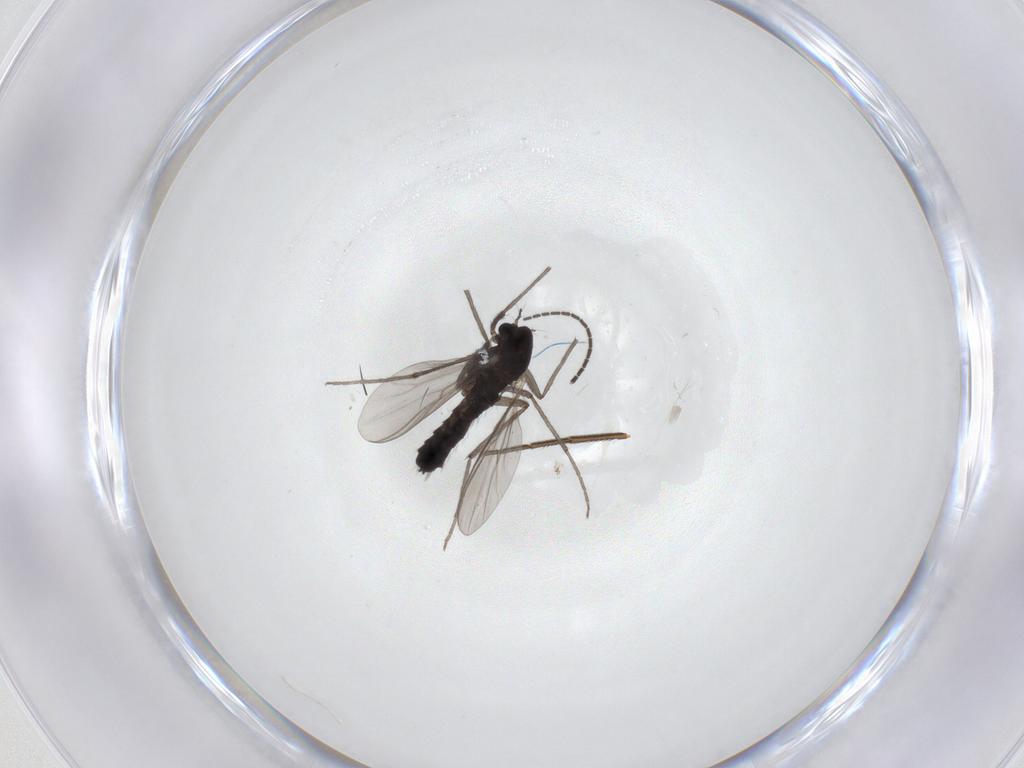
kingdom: Animalia
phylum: Arthropoda
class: Insecta
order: Diptera
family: Chironomidae
